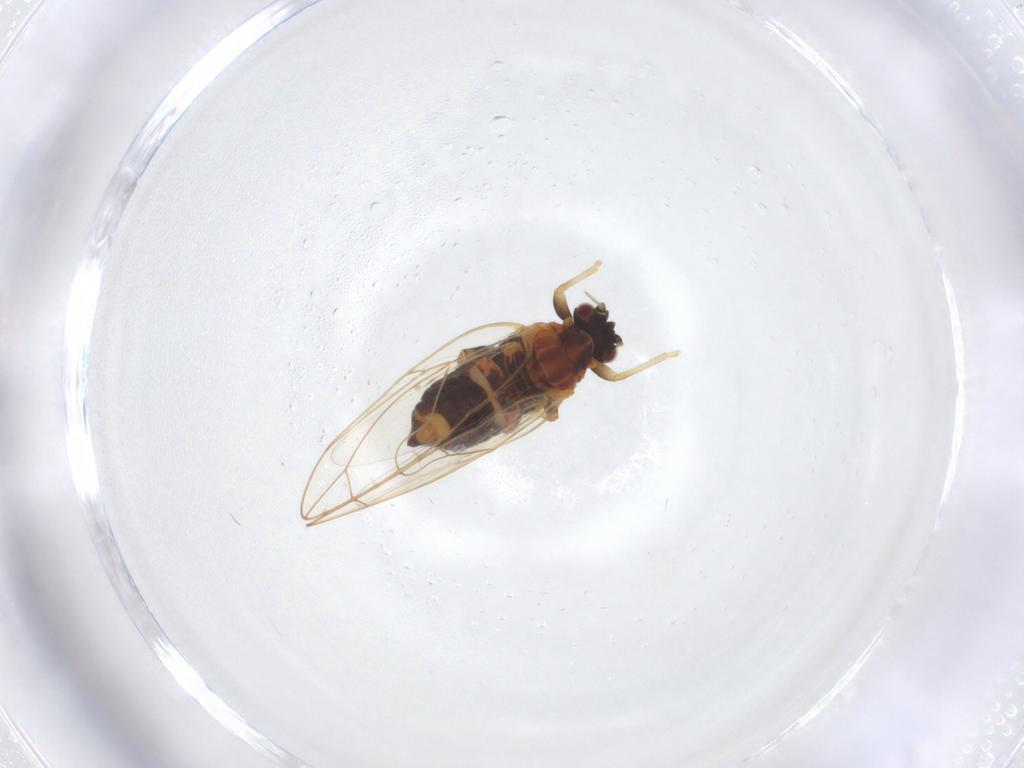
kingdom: Animalia
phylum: Arthropoda
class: Insecta
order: Hemiptera
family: Triozidae
